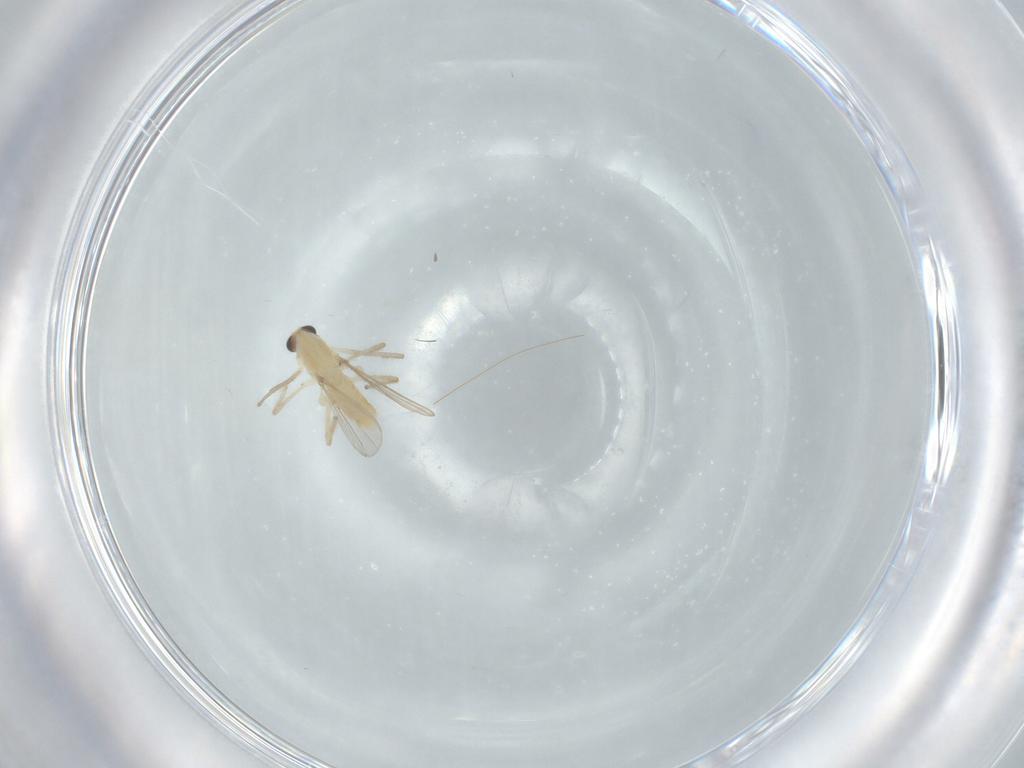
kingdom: Animalia
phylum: Arthropoda
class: Insecta
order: Diptera
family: Chironomidae
